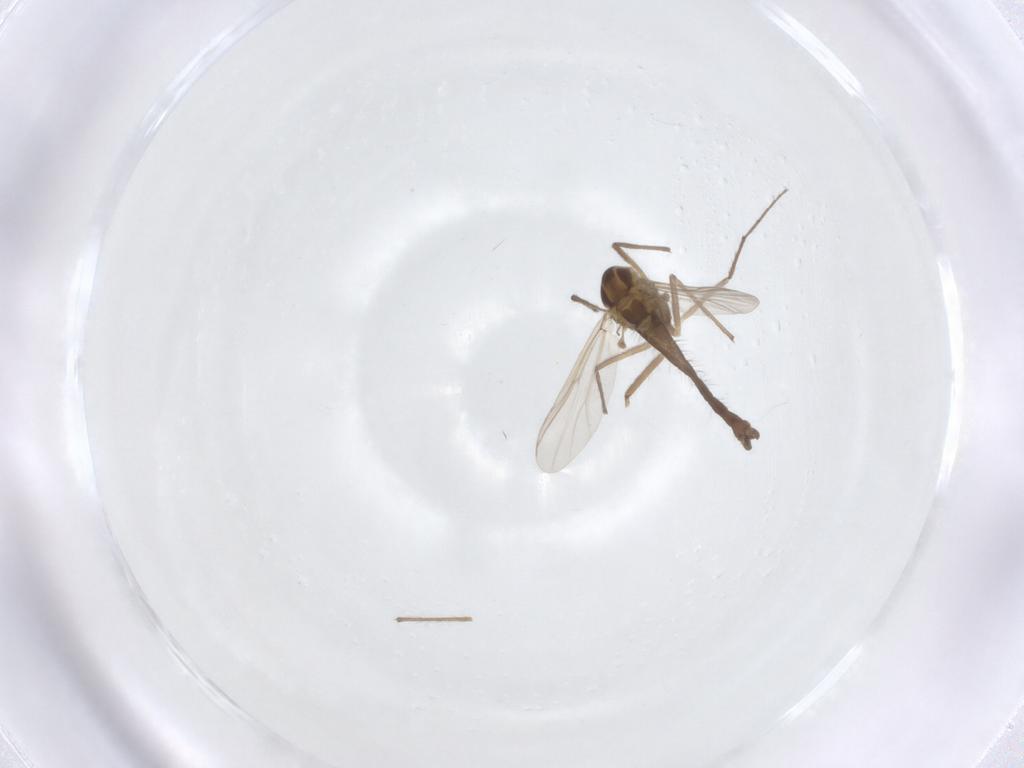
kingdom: Animalia
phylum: Arthropoda
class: Insecta
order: Diptera
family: Chironomidae
